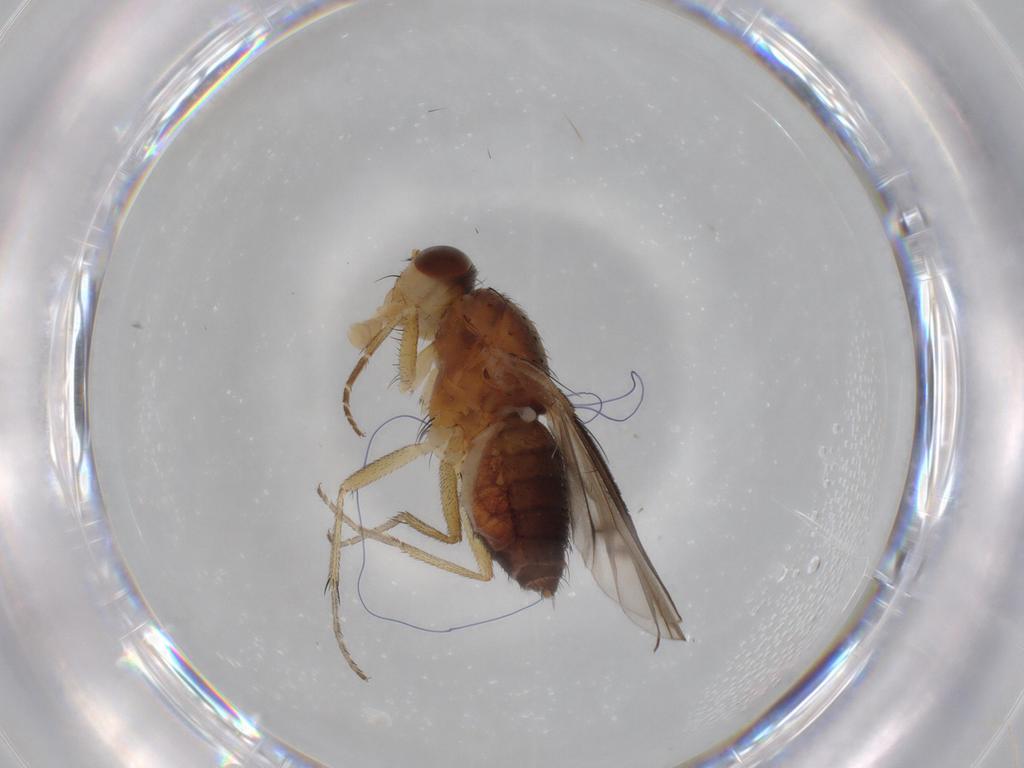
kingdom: Animalia
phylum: Arthropoda
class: Insecta
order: Diptera
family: Sphaeroceridae
